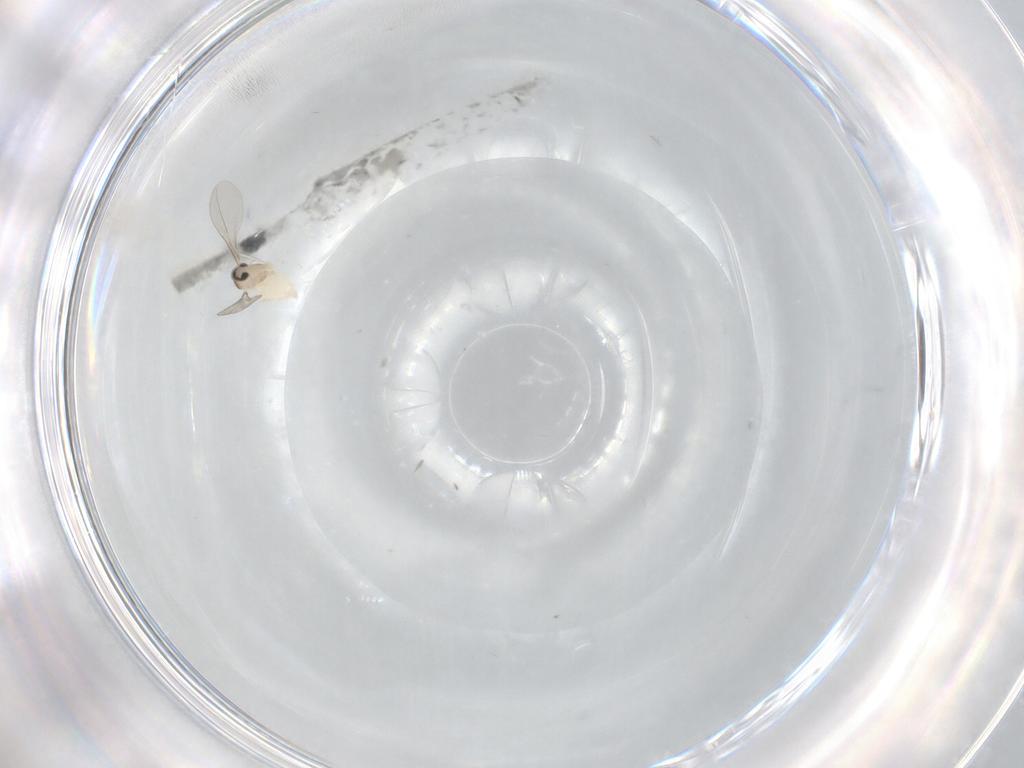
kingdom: Animalia
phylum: Arthropoda
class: Insecta
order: Diptera
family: Cecidomyiidae
